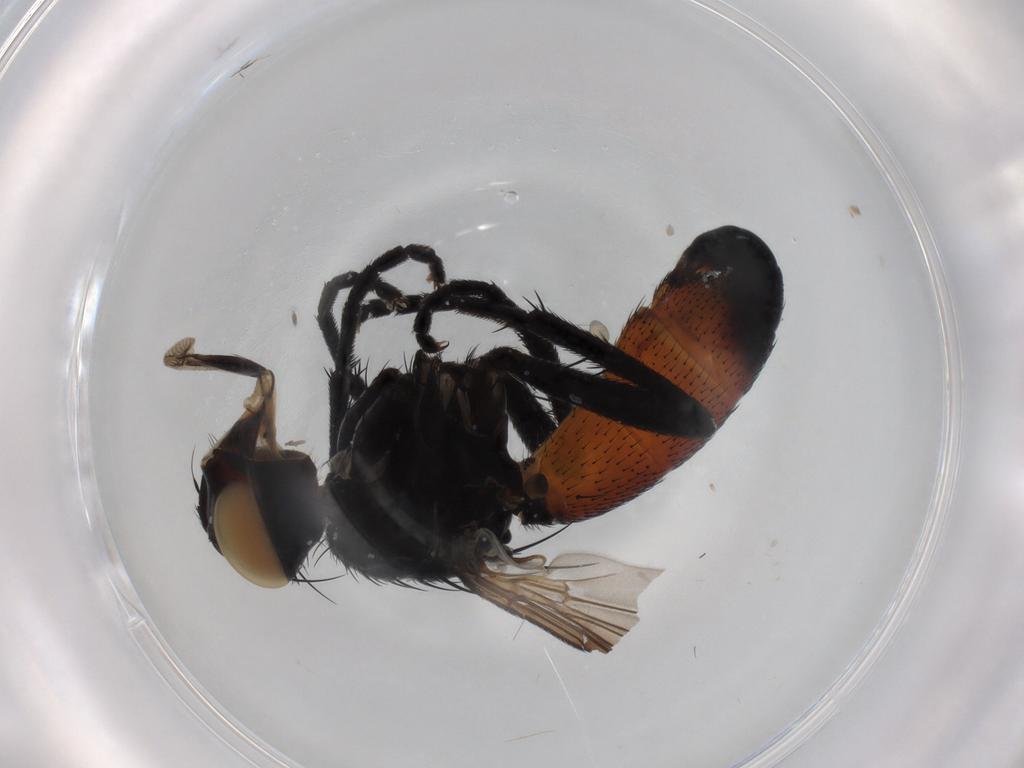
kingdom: Animalia
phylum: Arthropoda
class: Insecta
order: Diptera
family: Tachinidae
